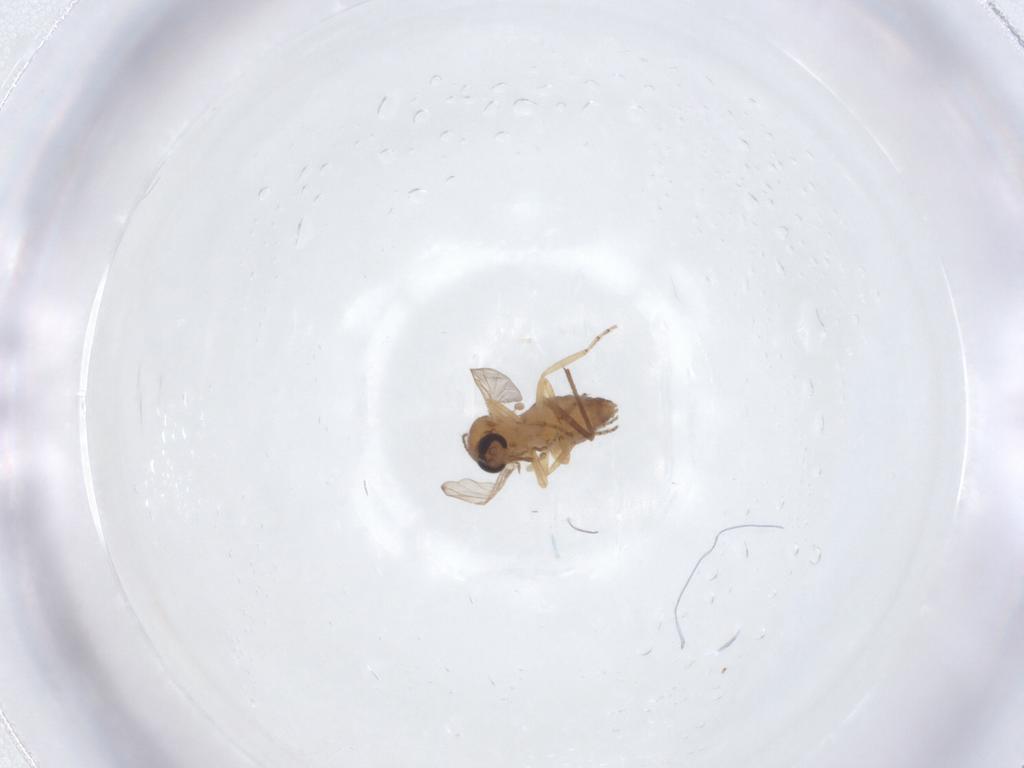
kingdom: Animalia
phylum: Arthropoda
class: Insecta
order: Diptera
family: Ceratopogonidae
